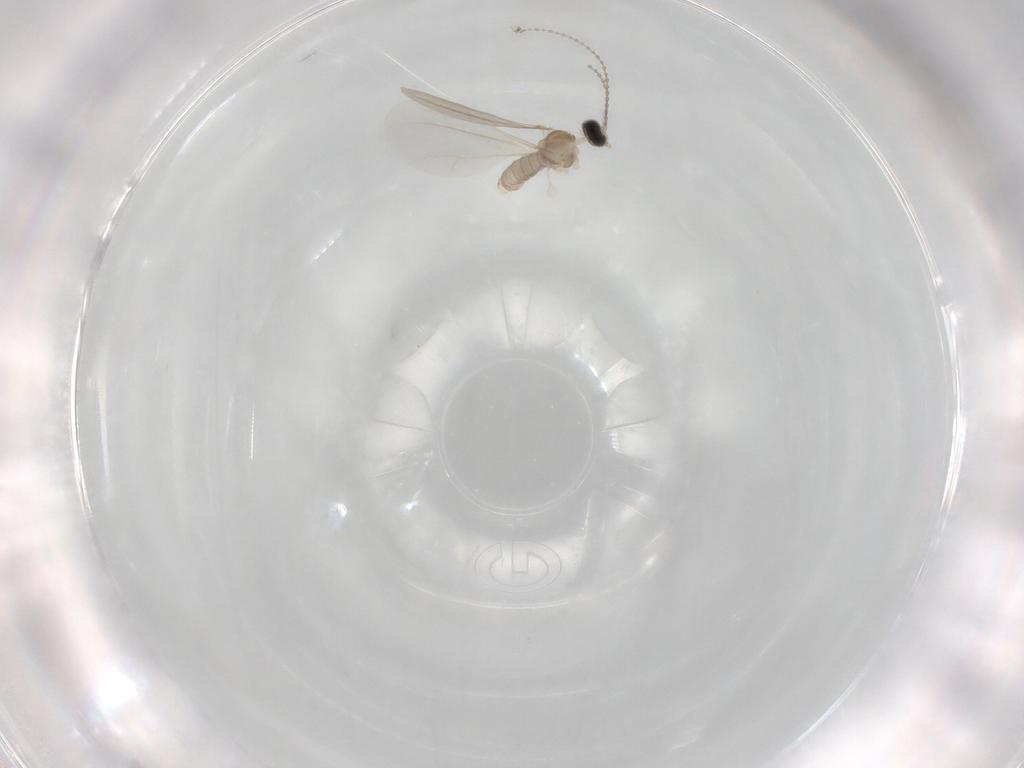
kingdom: Animalia
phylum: Arthropoda
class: Insecta
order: Diptera
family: Cecidomyiidae
